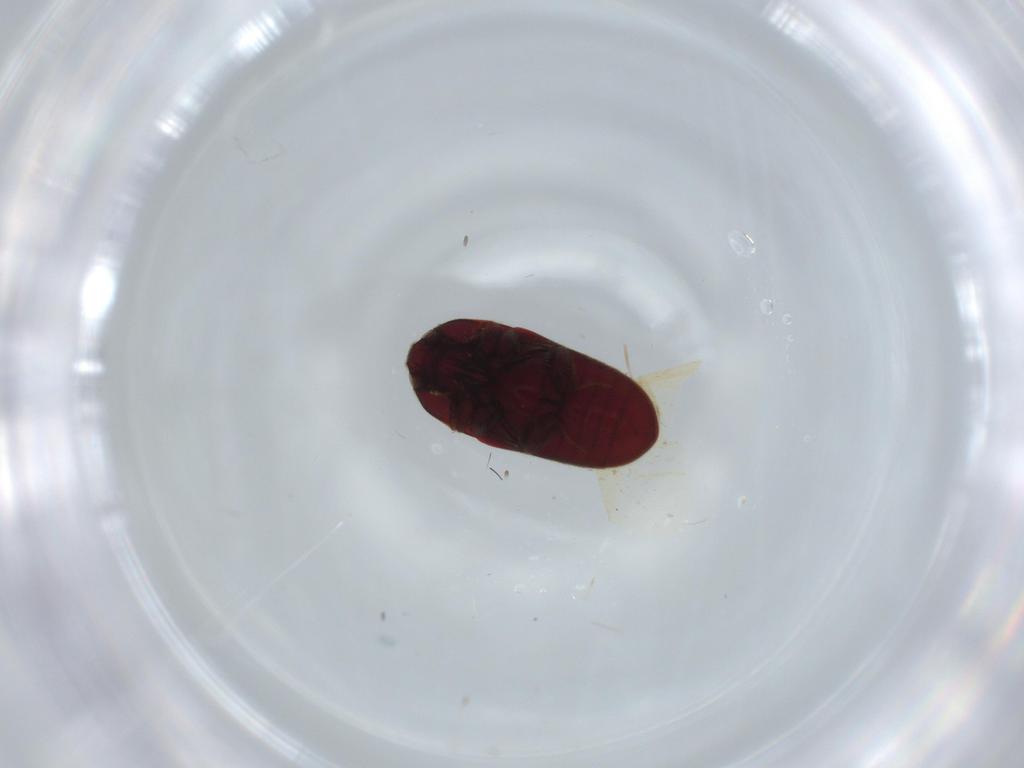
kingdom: Animalia
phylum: Arthropoda
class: Insecta
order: Coleoptera
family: Throscidae
